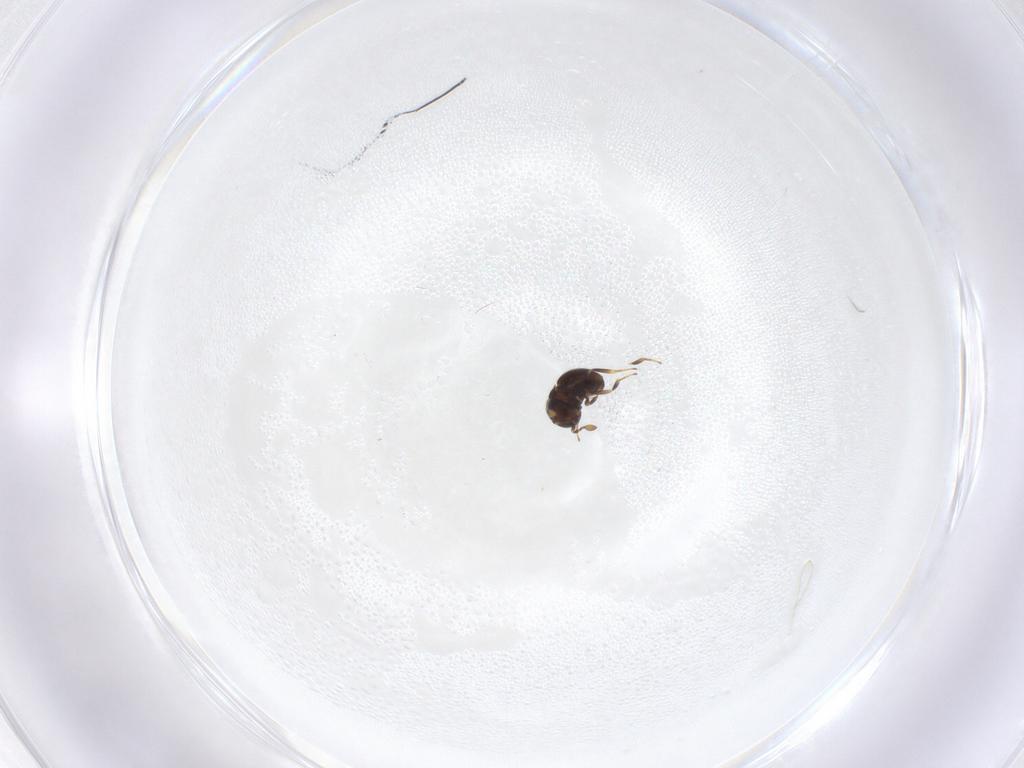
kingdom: Animalia
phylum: Arthropoda
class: Insecta
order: Hymenoptera
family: Scelionidae
